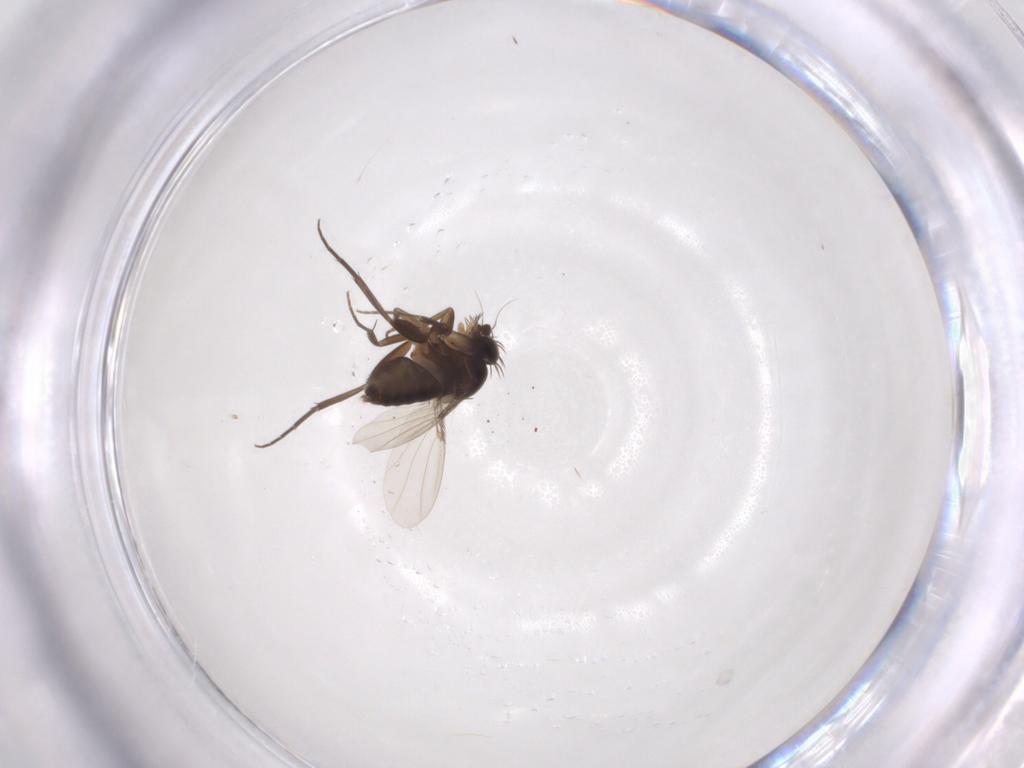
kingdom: Animalia
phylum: Arthropoda
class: Insecta
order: Diptera
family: Phoridae
